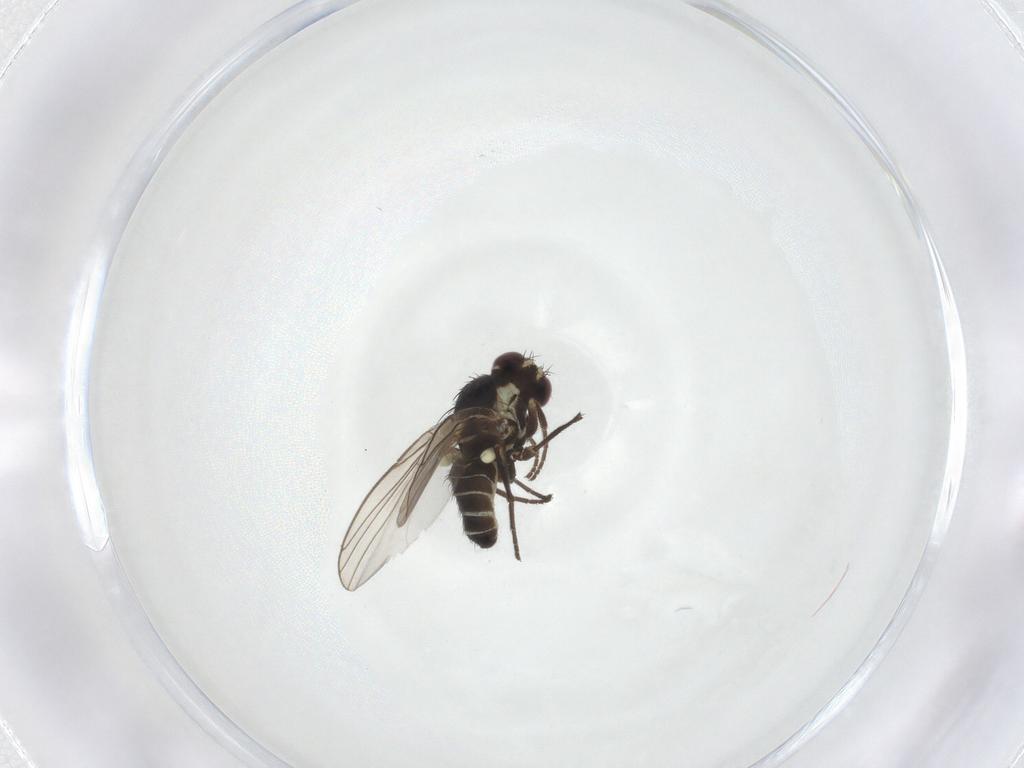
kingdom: Animalia
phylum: Arthropoda
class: Insecta
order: Diptera
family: Agromyzidae
